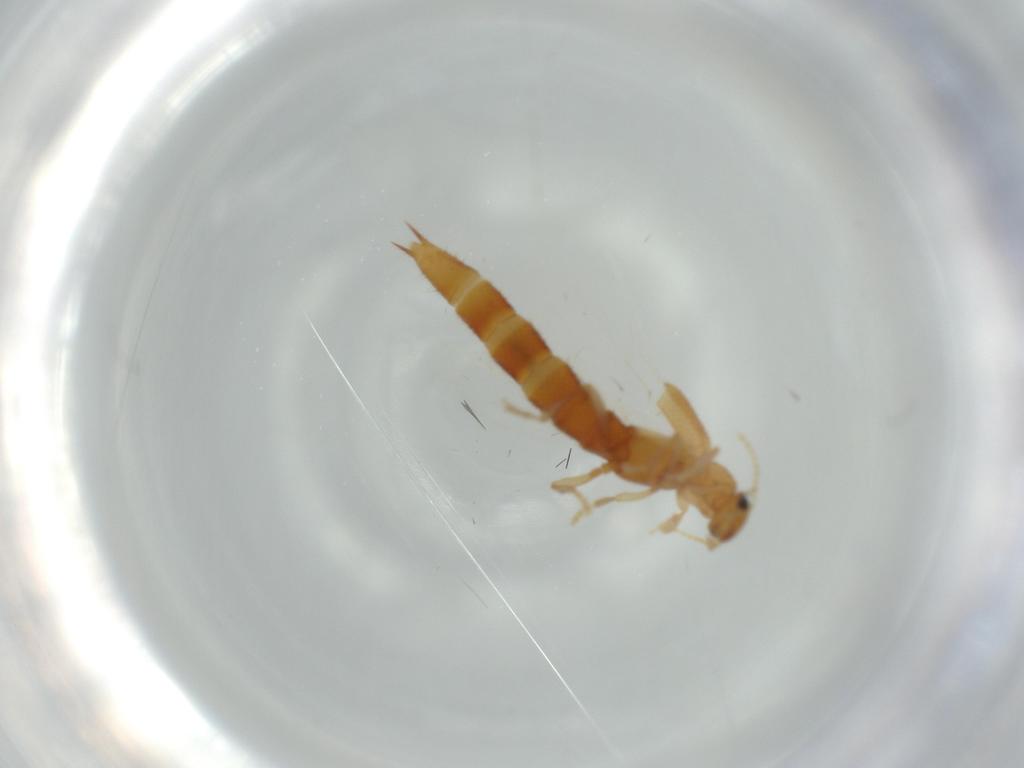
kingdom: Animalia
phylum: Arthropoda
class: Insecta
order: Coleoptera
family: Staphylinidae
